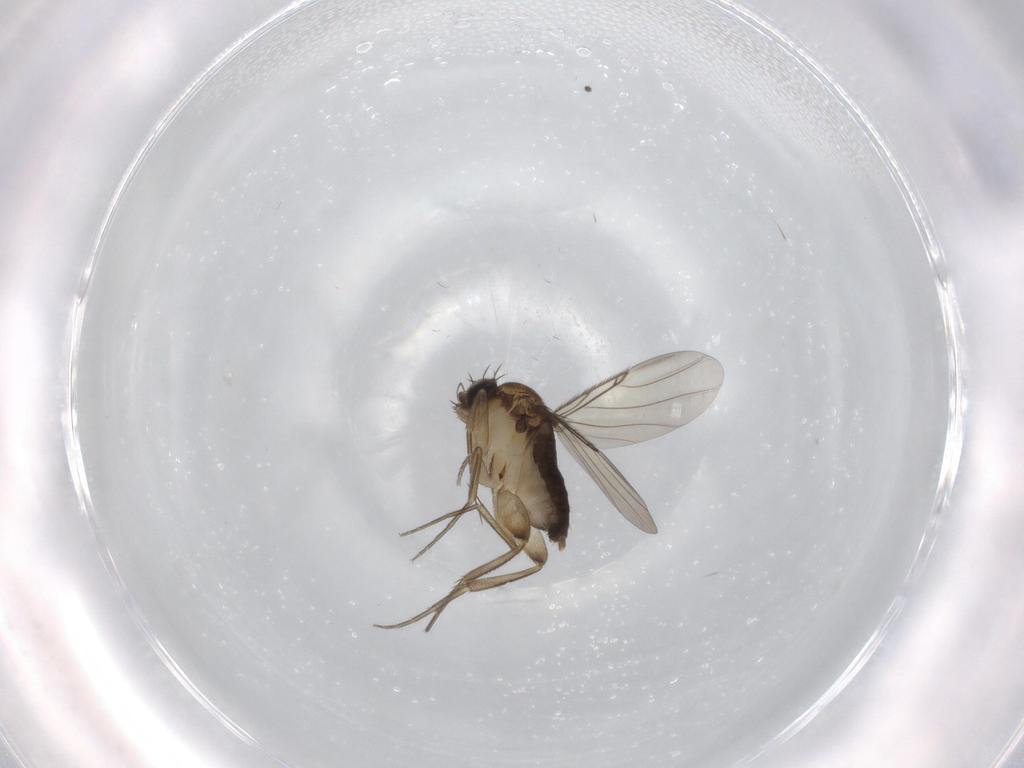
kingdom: Animalia
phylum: Arthropoda
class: Insecta
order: Diptera
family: Phoridae
